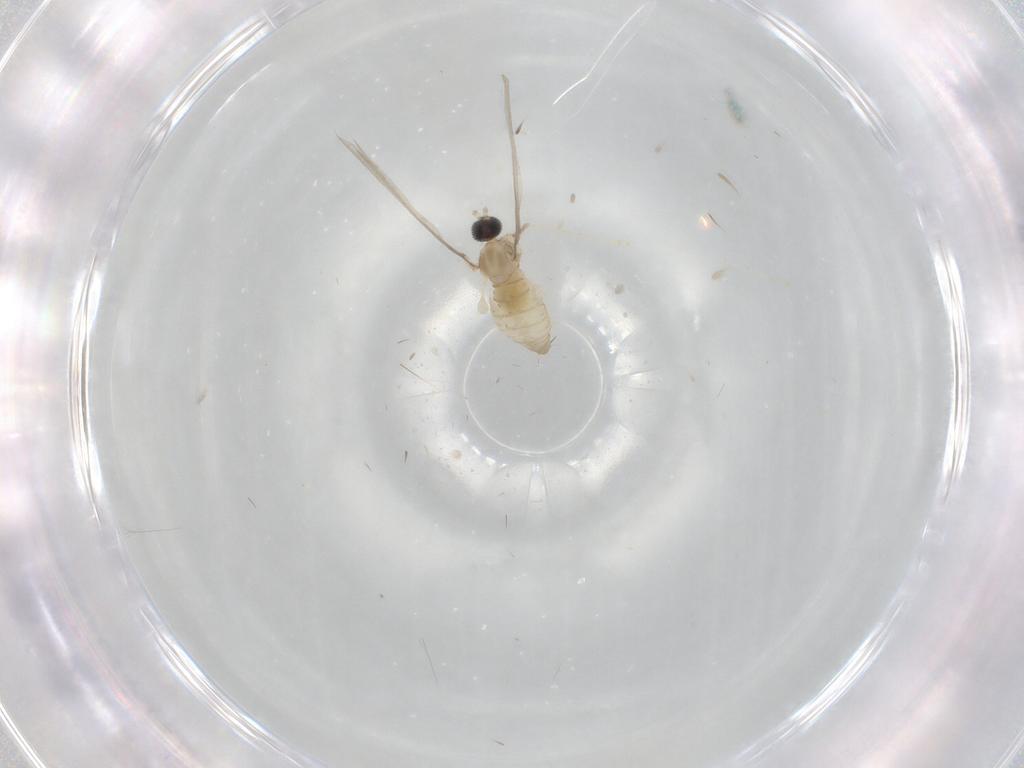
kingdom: Animalia
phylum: Arthropoda
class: Insecta
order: Diptera
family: Cecidomyiidae
